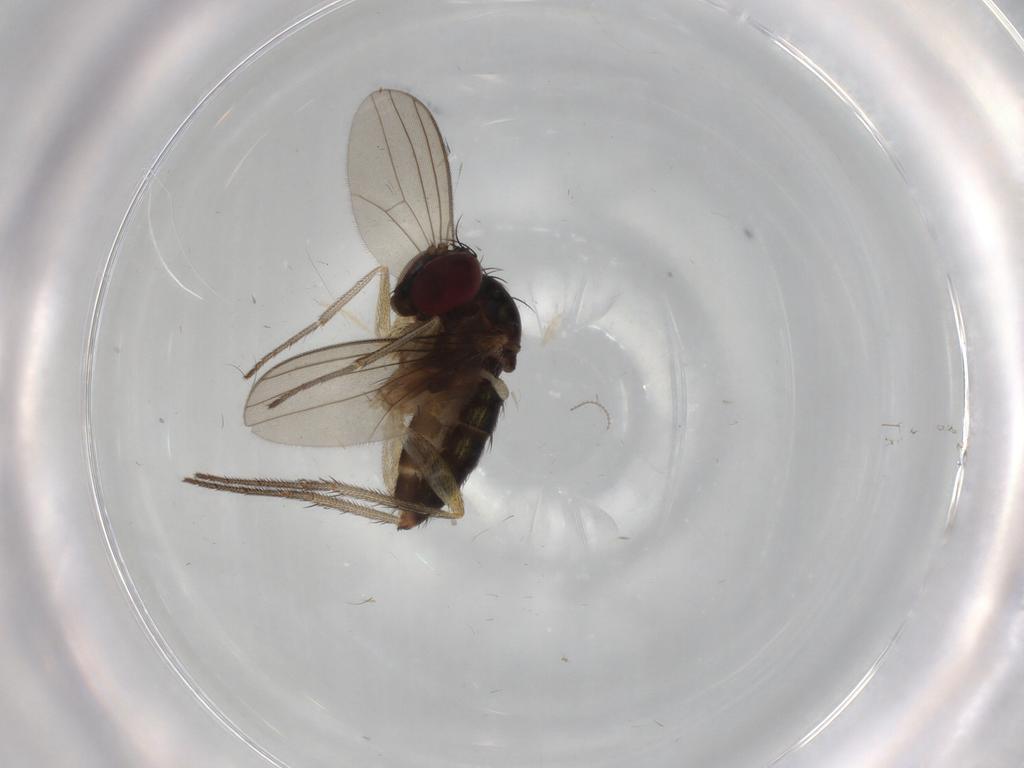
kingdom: Animalia
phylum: Arthropoda
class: Insecta
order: Diptera
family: Dolichopodidae
